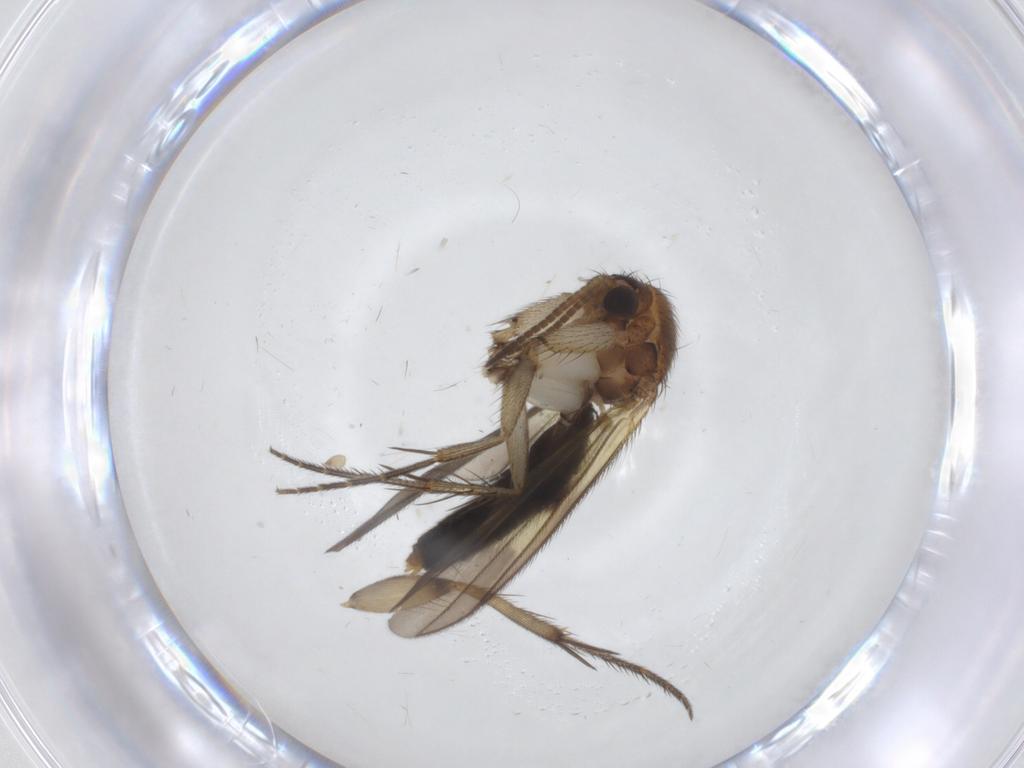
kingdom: Animalia
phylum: Arthropoda
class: Insecta
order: Diptera
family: Mycetophilidae
